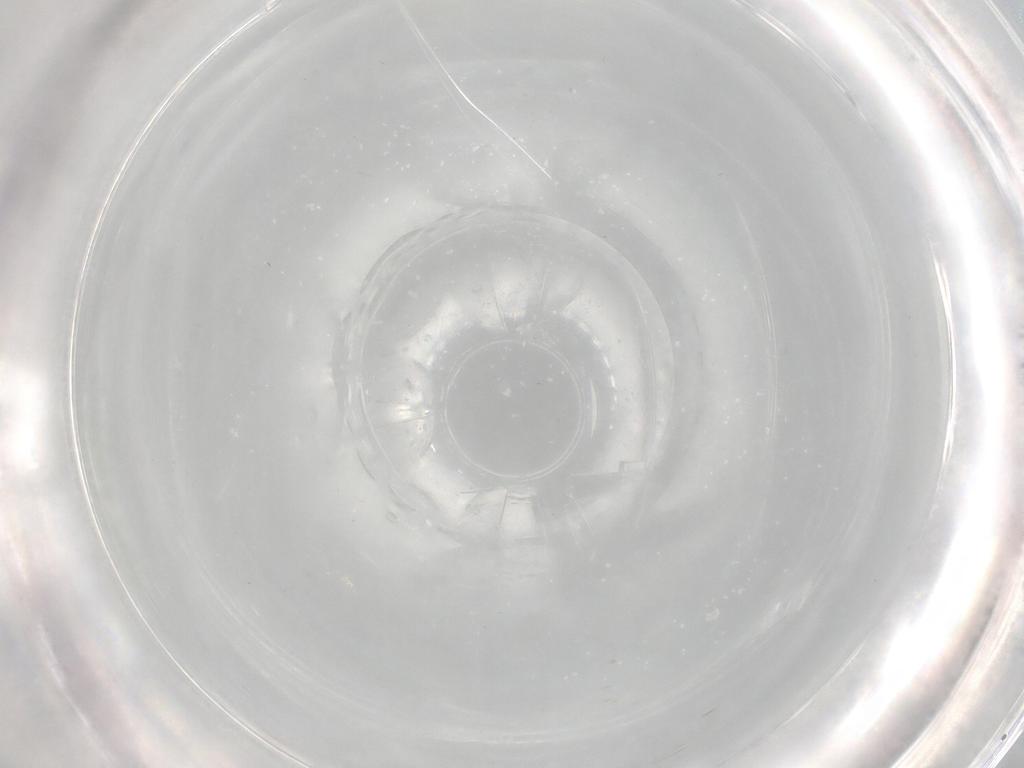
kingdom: Animalia
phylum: Arthropoda
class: Insecta
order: Diptera
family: Cecidomyiidae
